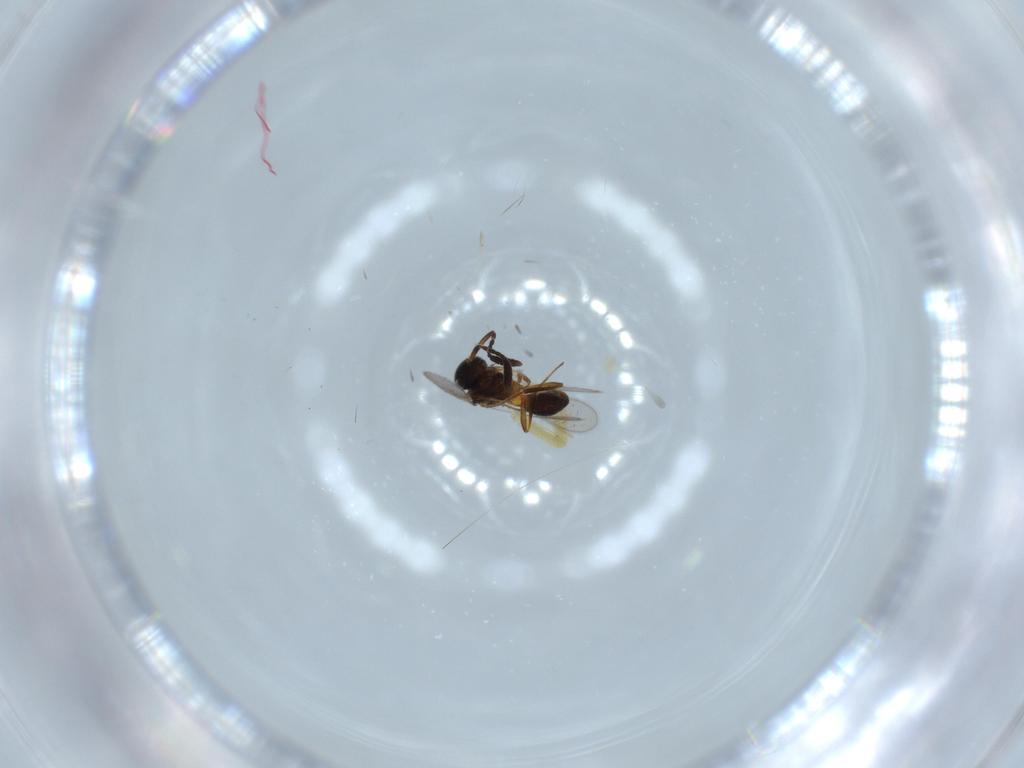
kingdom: Animalia
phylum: Arthropoda
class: Insecta
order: Hymenoptera
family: Scelionidae
